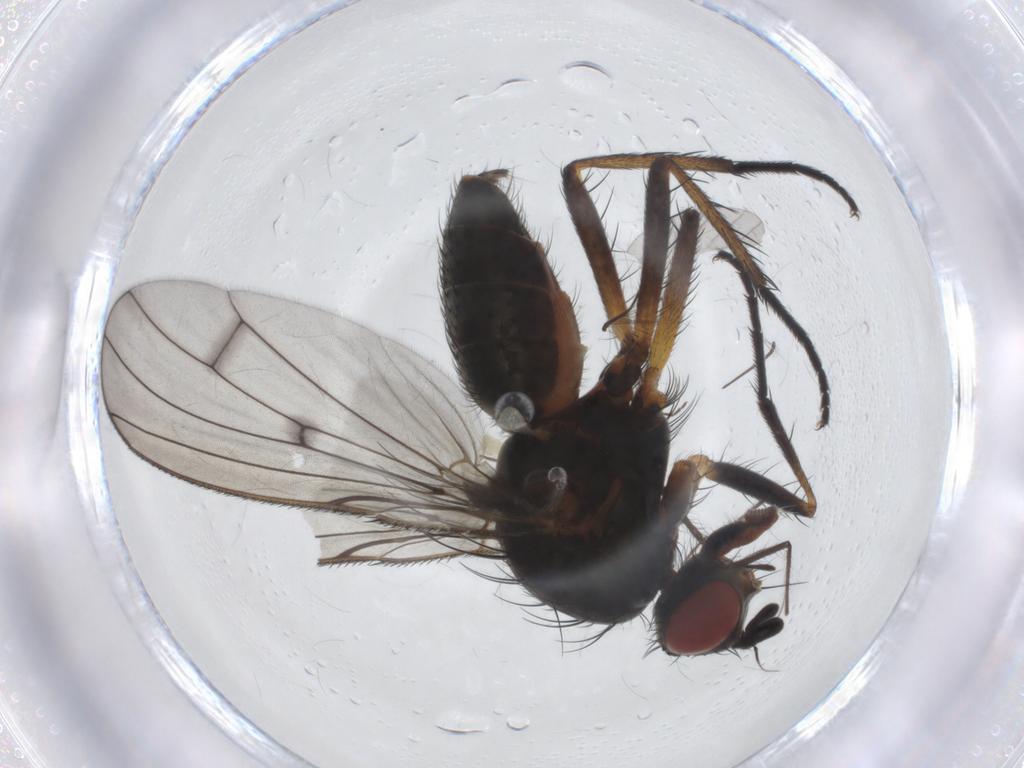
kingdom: Animalia
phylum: Arthropoda
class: Insecta
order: Diptera
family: Anthomyiidae
